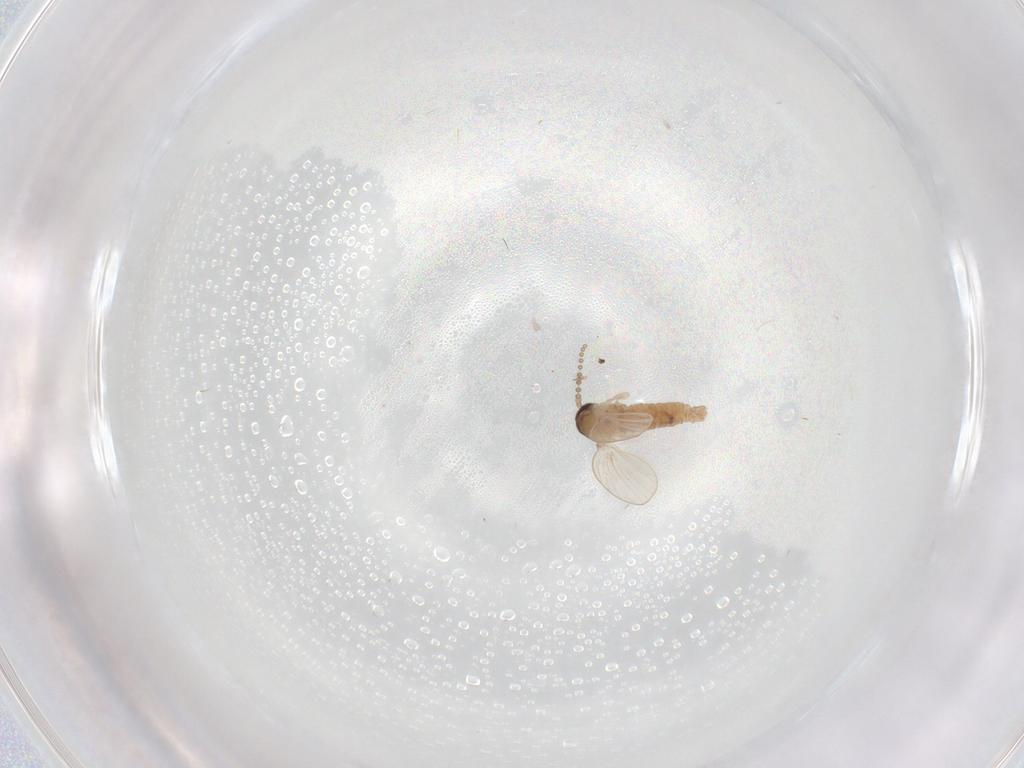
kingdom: Animalia
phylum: Arthropoda
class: Insecta
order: Diptera
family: Psychodidae
